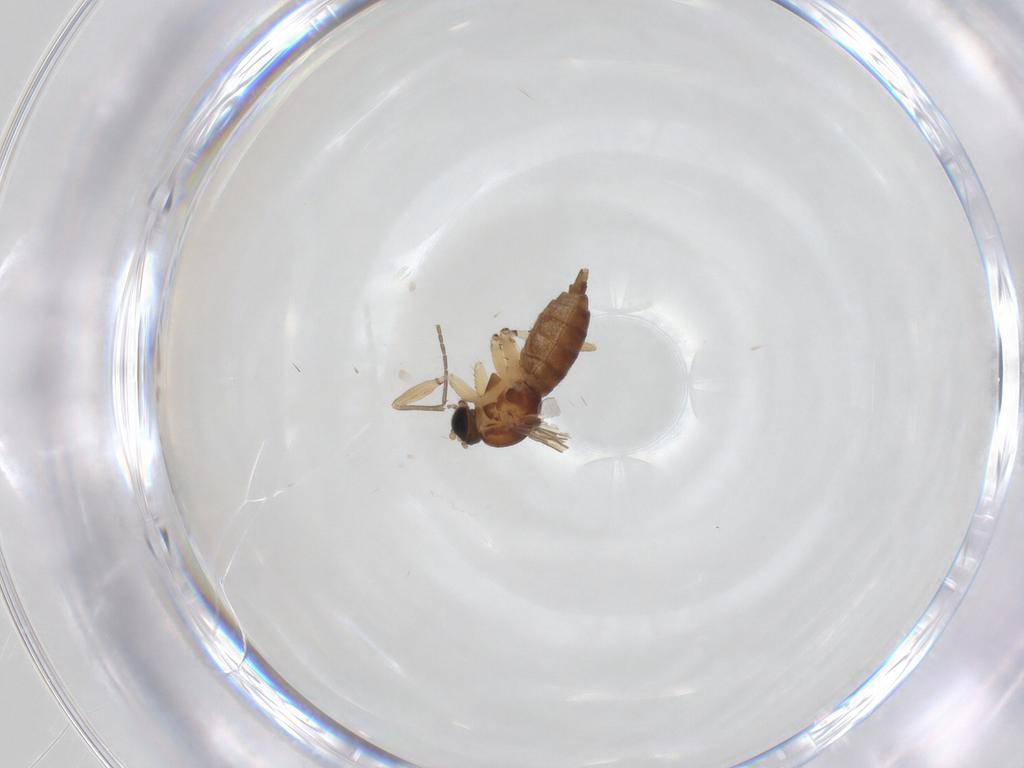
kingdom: Animalia
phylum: Arthropoda
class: Insecta
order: Diptera
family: Sciaridae
